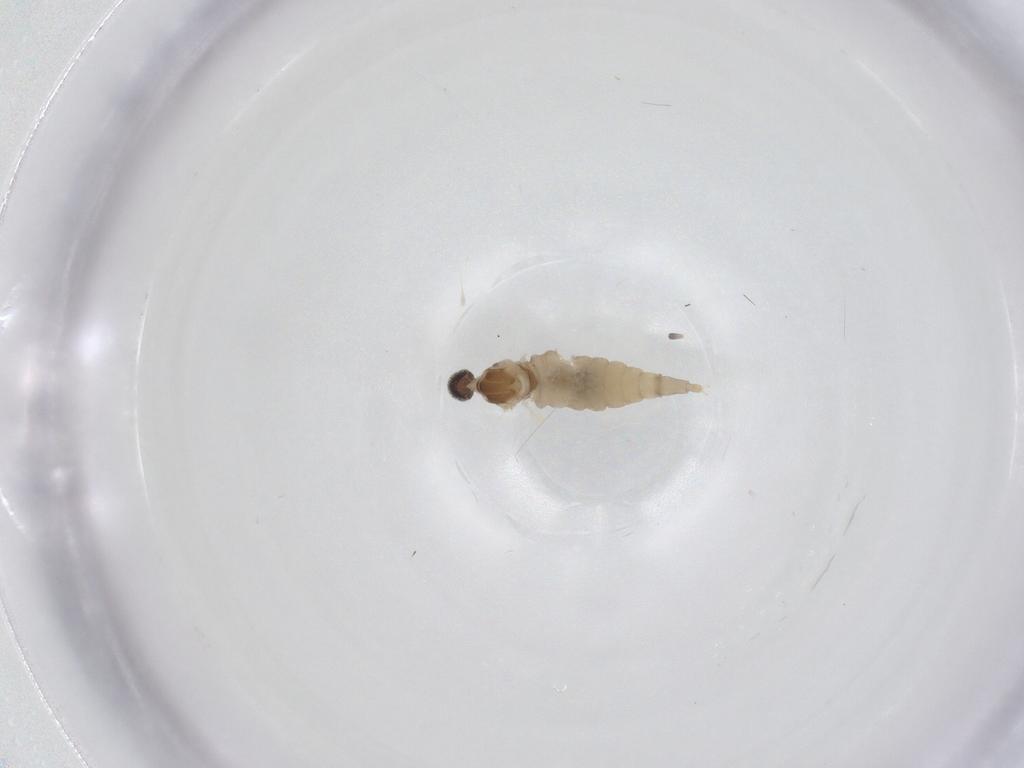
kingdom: Animalia
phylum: Arthropoda
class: Insecta
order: Diptera
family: Cecidomyiidae
